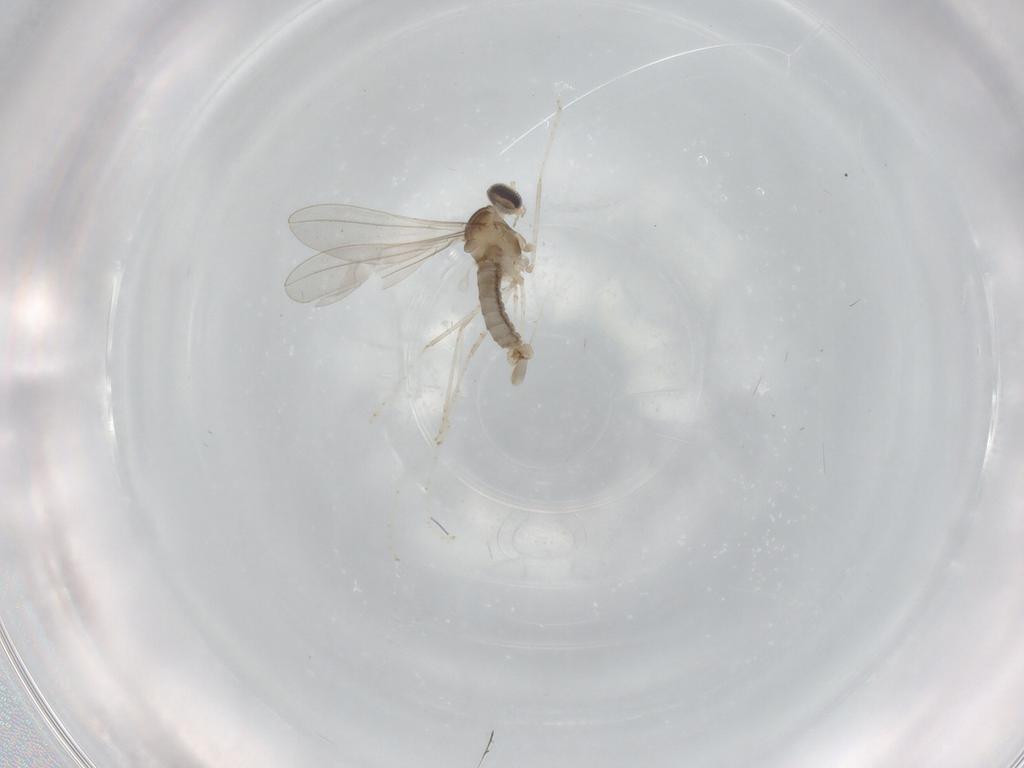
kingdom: Animalia
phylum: Arthropoda
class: Insecta
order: Diptera
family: Cecidomyiidae
